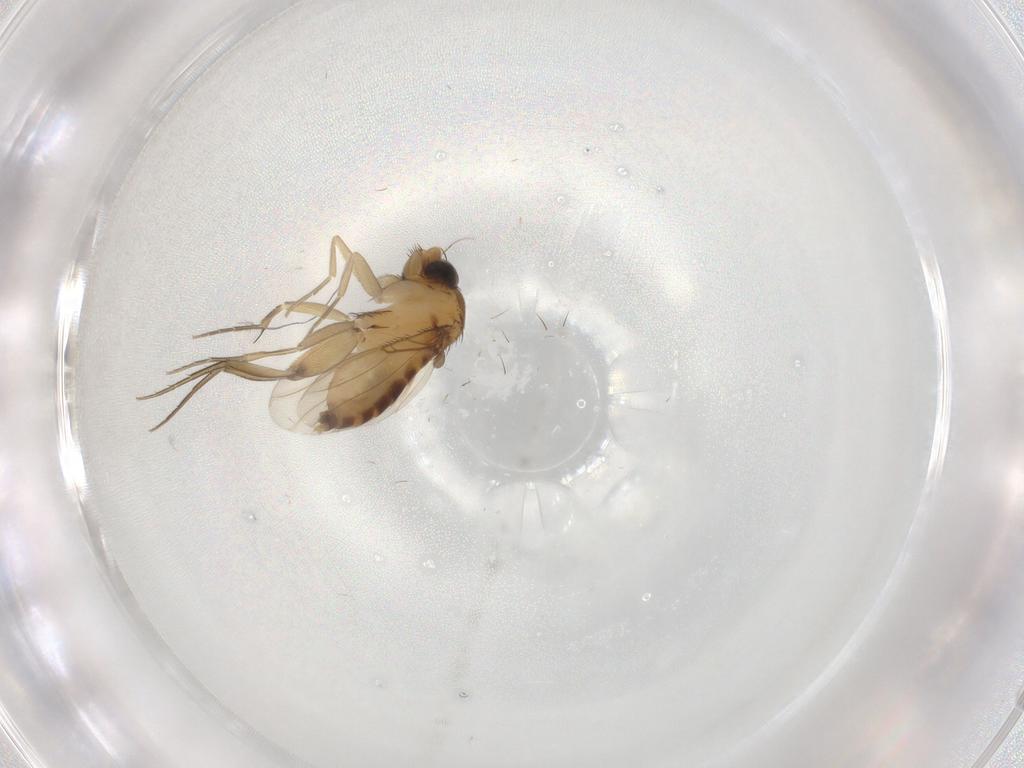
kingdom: Animalia
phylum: Arthropoda
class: Insecta
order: Diptera
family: Phoridae
